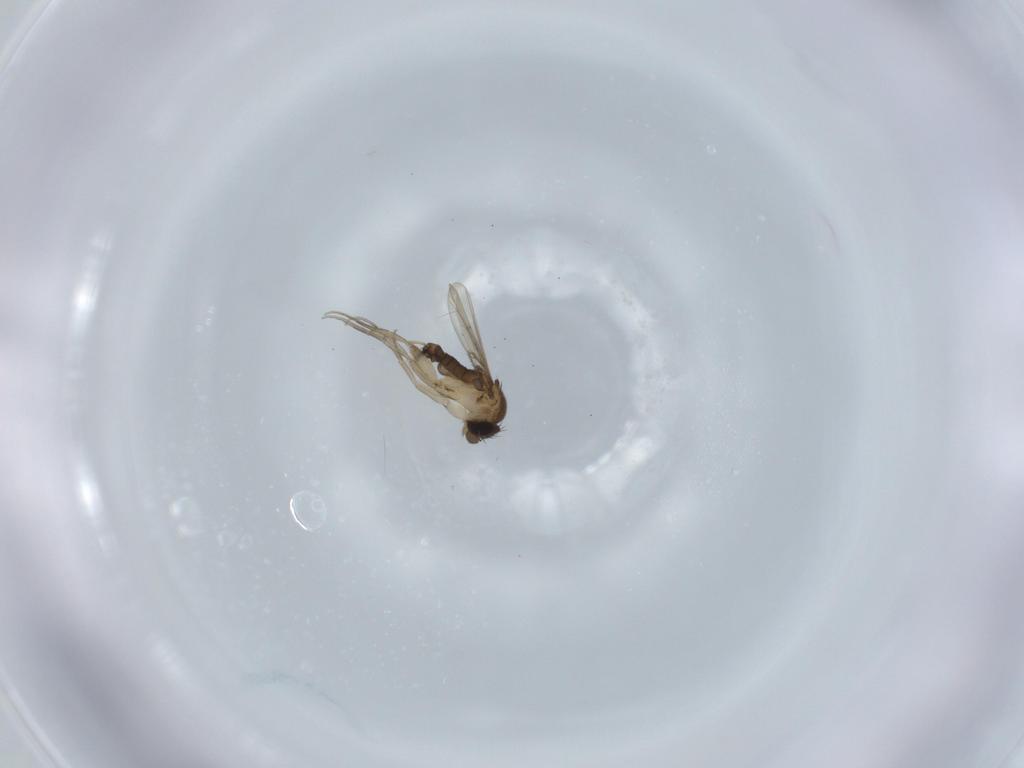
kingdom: Animalia
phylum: Arthropoda
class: Insecta
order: Diptera
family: Phoridae
